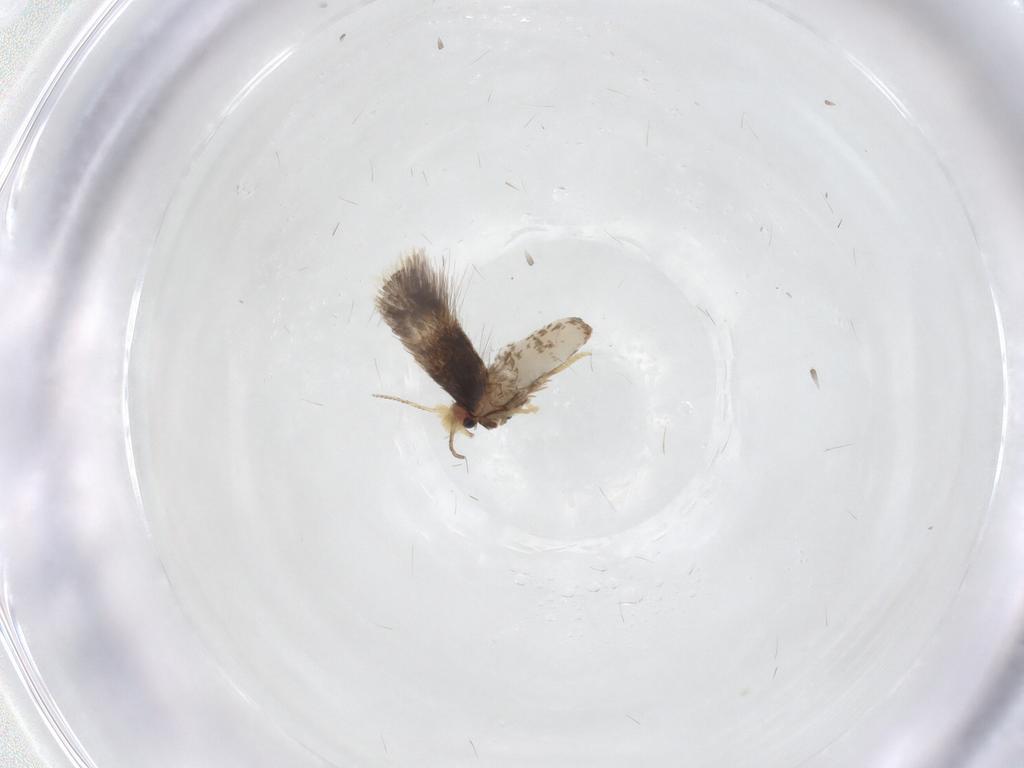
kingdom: Animalia
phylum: Arthropoda
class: Insecta
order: Lepidoptera
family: Nepticulidae
